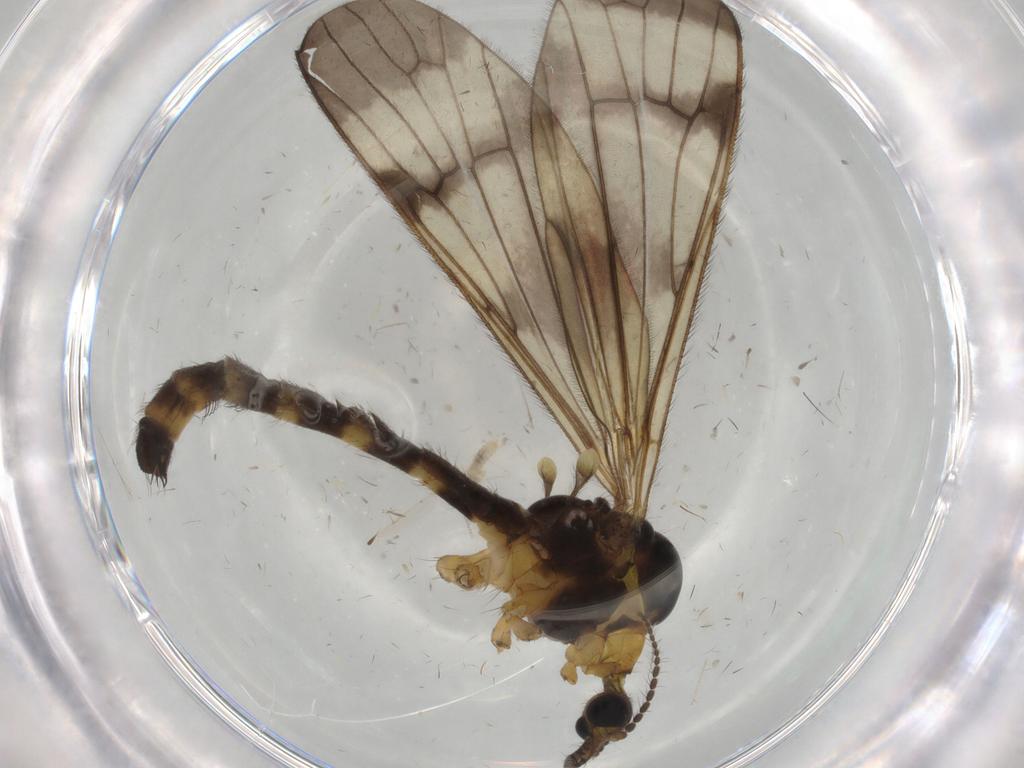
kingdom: Animalia
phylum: Arthropoda
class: Insecta
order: Diptera
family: Limoniidae
